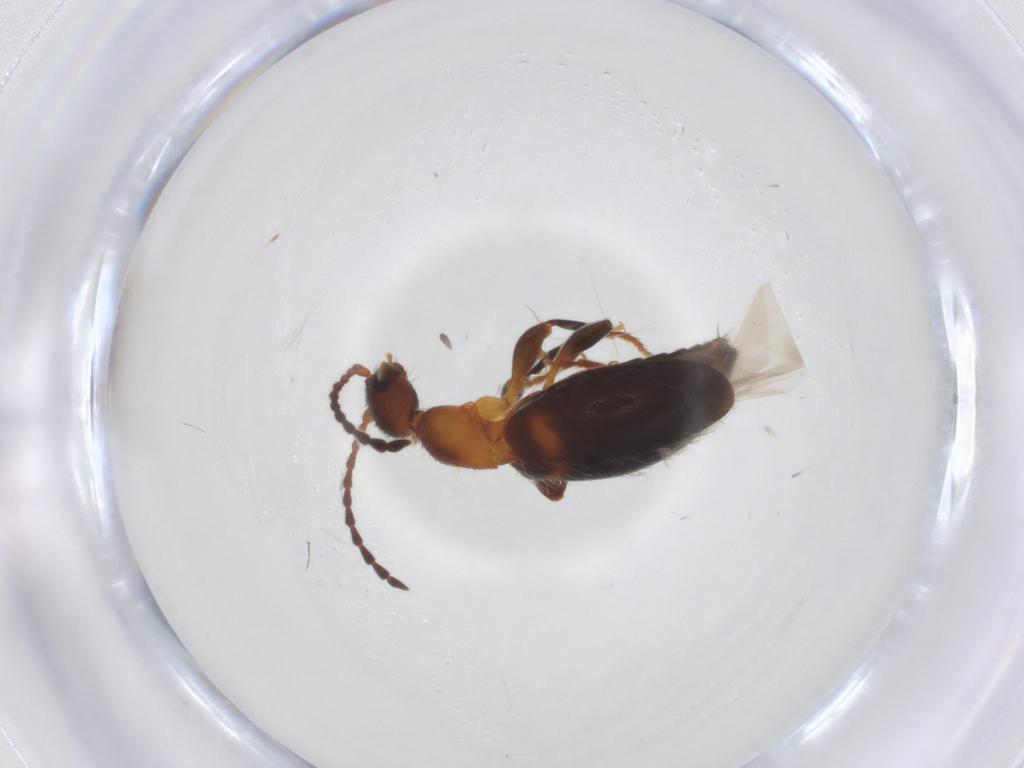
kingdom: Animalia
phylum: Arthropoda
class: Insecta
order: Coleoptera
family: Anthicidae
